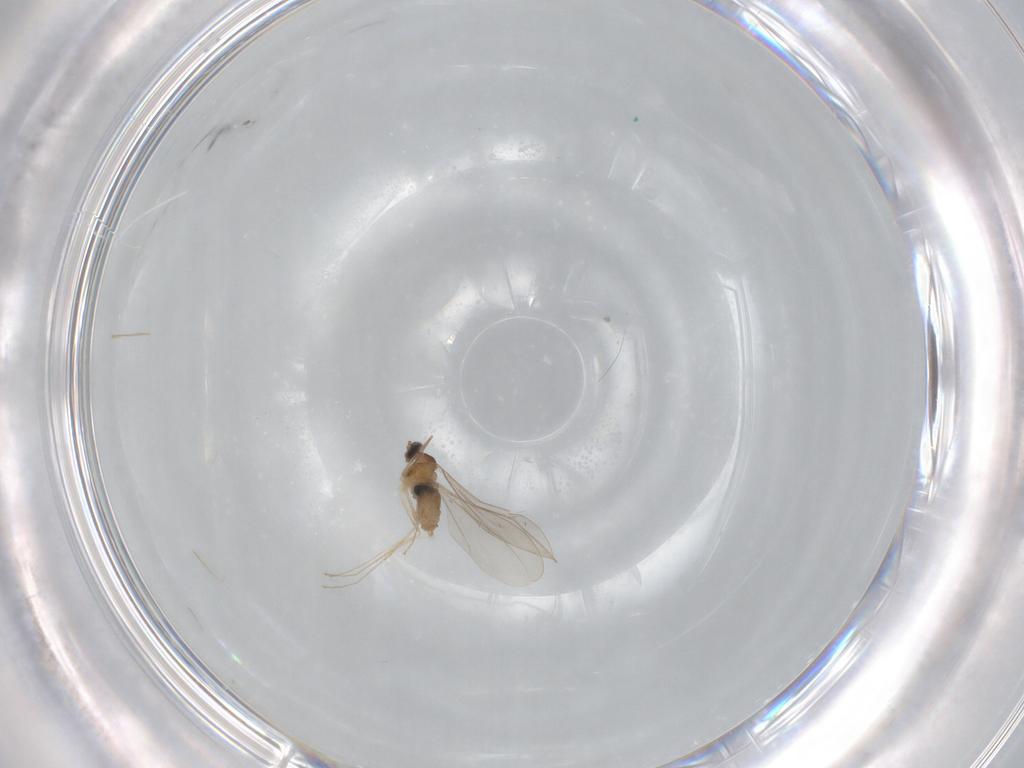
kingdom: Animalia
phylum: Arthropoda
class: Insecta
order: Diptera
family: Cecidomyiidae
